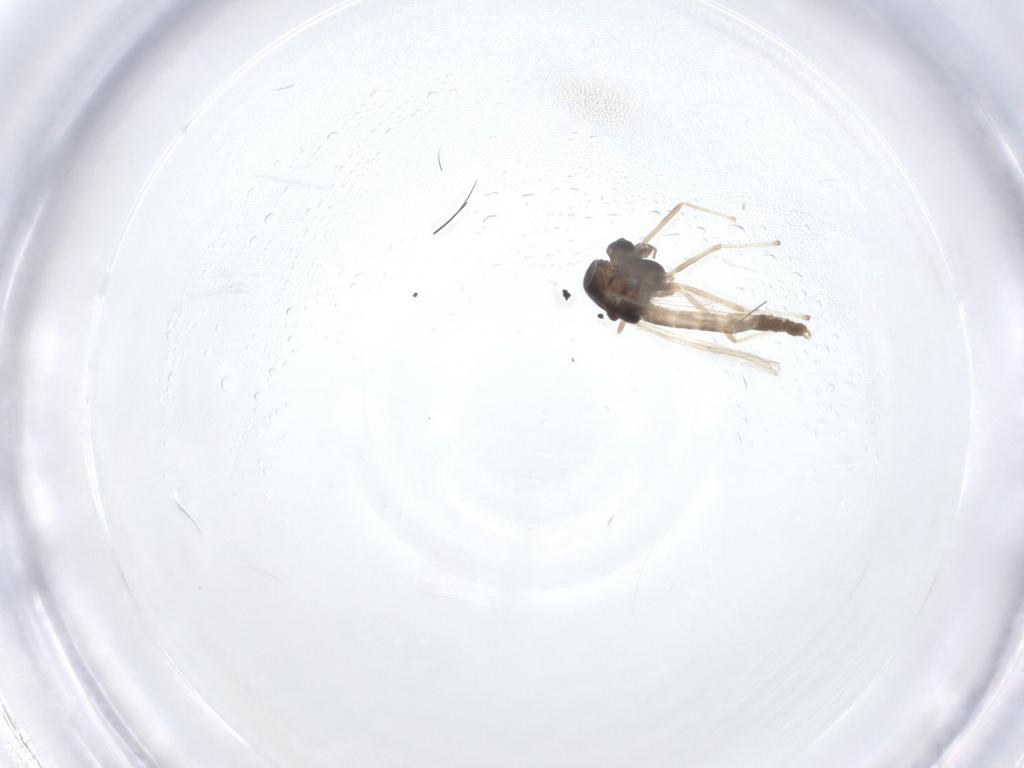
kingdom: Animalia
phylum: Arthropoda
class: Insecta
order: Diptera
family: Chironomidae
